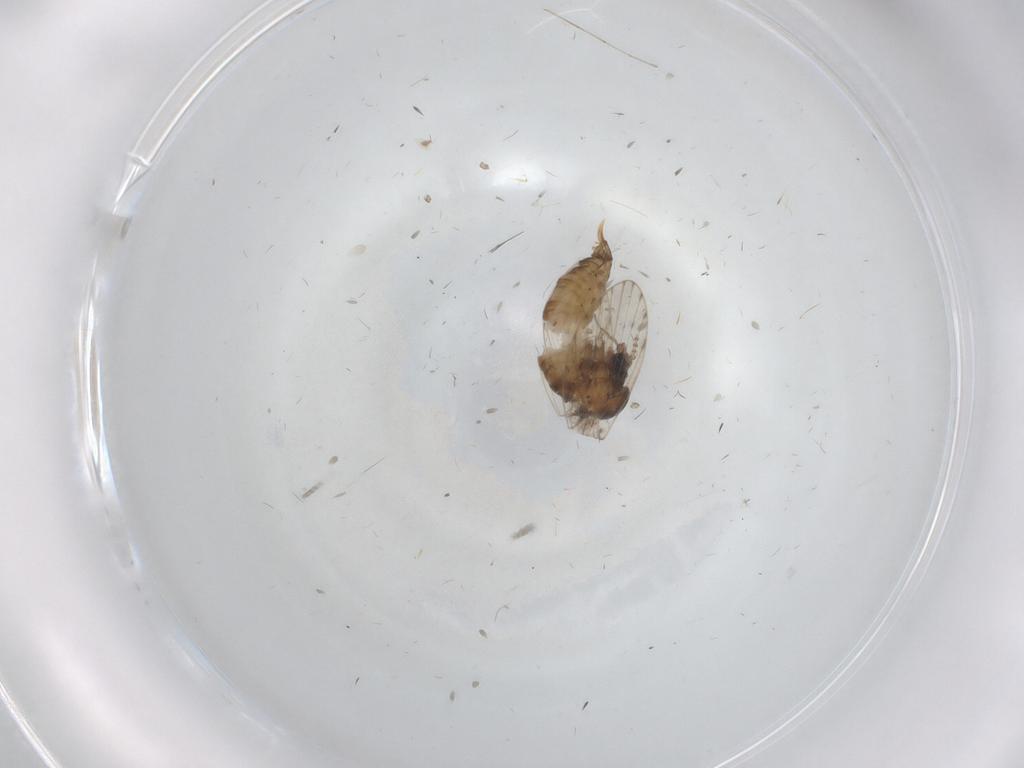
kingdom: Animalia
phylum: Arthropoda
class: Insecta
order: Diptera
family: Psychodidae
